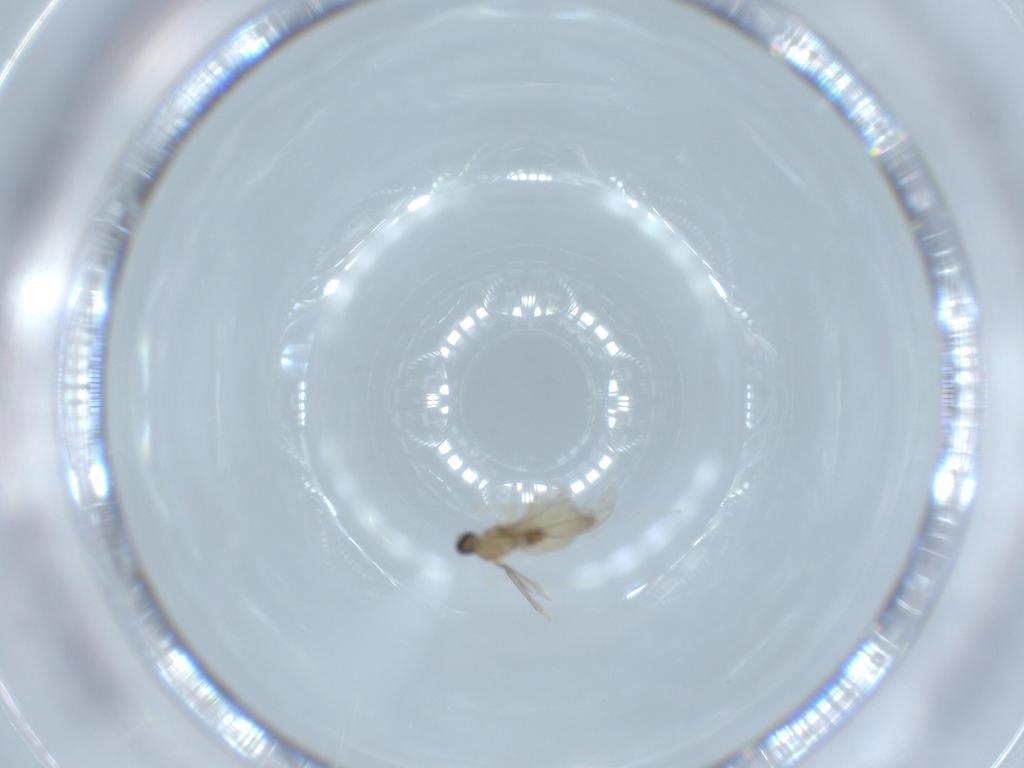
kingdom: Animalia
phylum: Arthropoda
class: Insecta
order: Diptera
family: Cecidomyiidae
